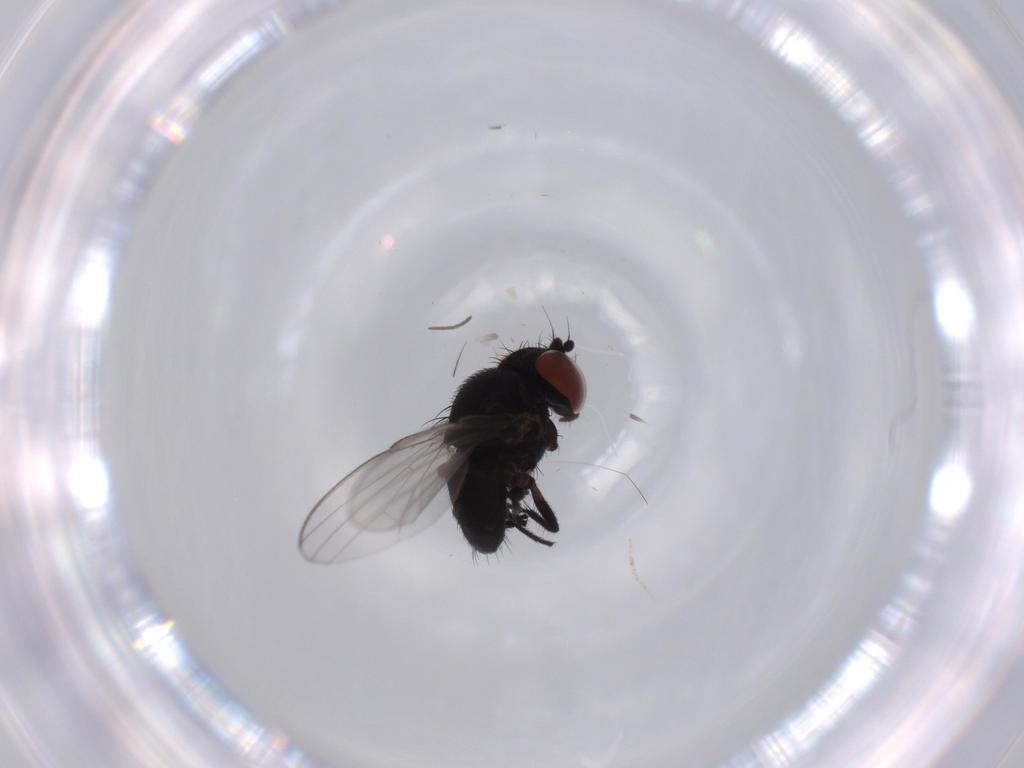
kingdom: Animalia
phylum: Arthropoda
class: Insecta
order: Diptera
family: Milichiidae
